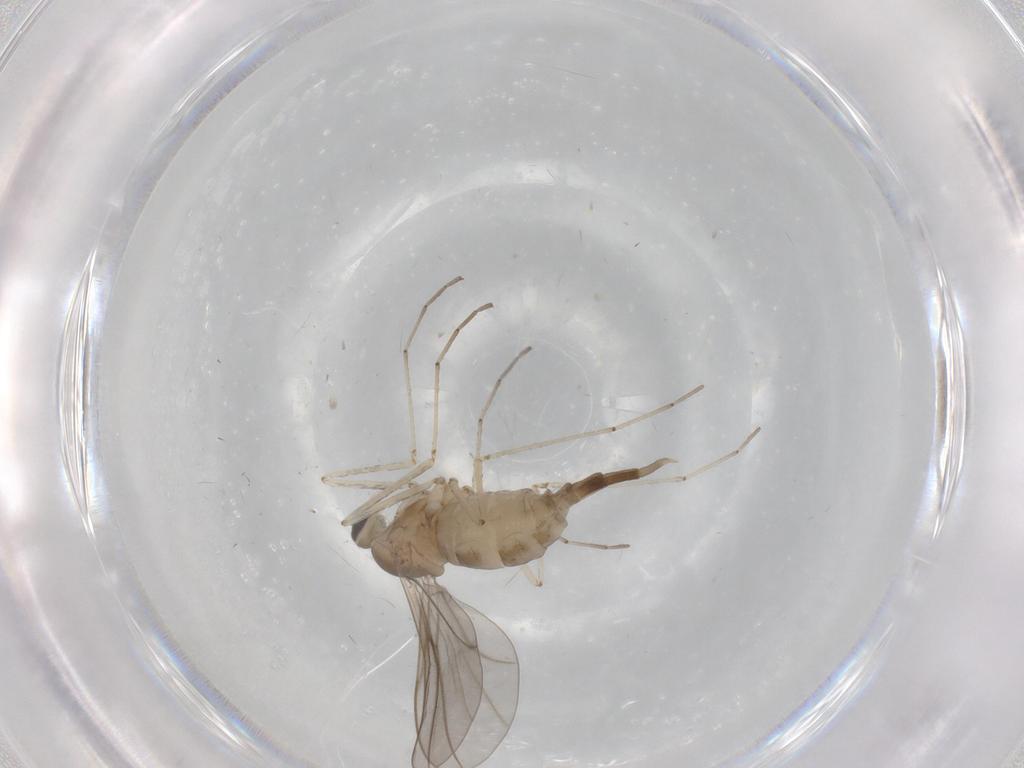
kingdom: Animalia
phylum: Arthropoda
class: Insecta
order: Diptera
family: Cecidomyiidae
